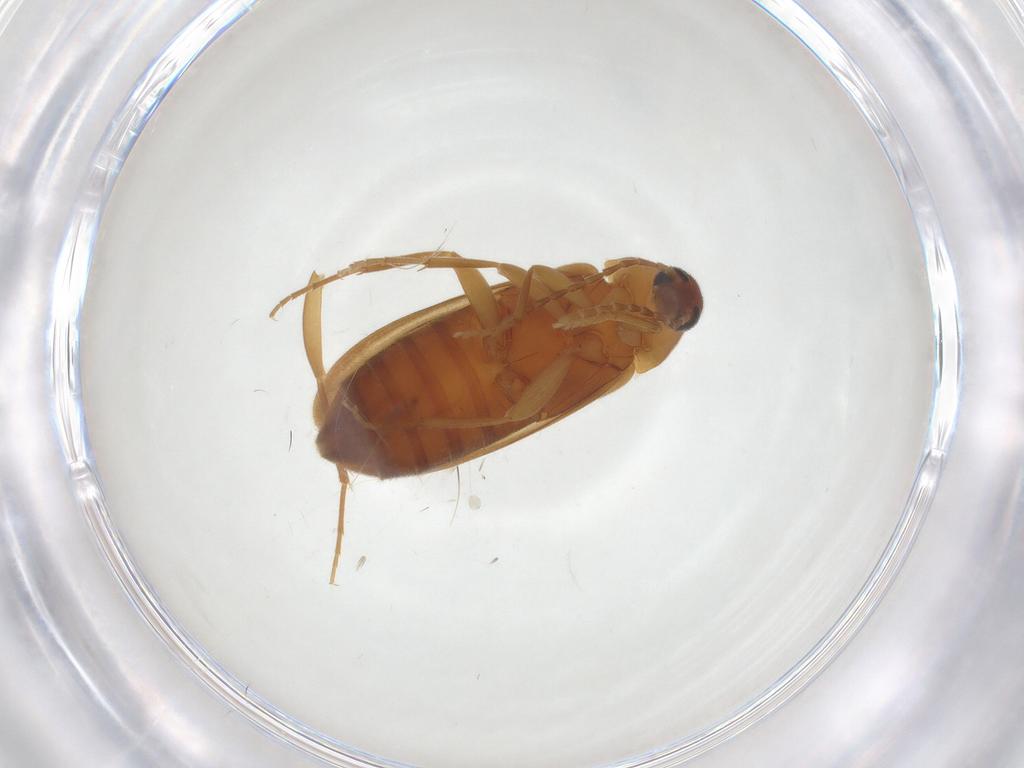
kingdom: Animalia
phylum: Arthropoda
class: Insecta
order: Coleoptera
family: Scraptiidae
